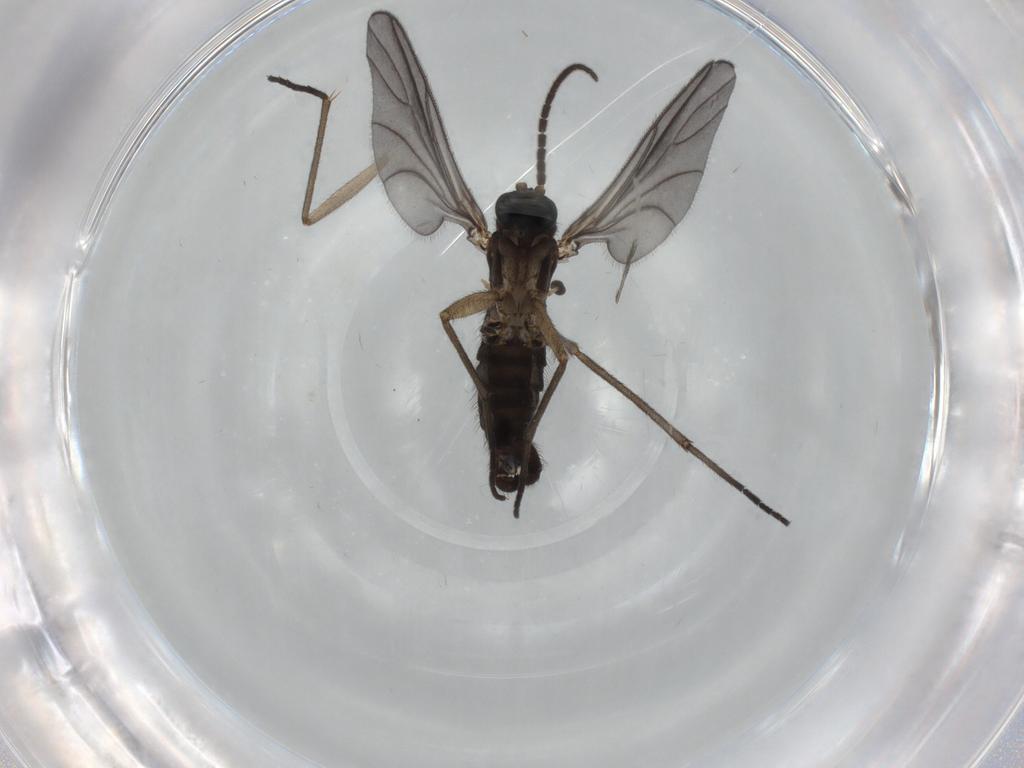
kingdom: Animalia
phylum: Arthropoda
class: Insecta
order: Diptera
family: Sciaridae
